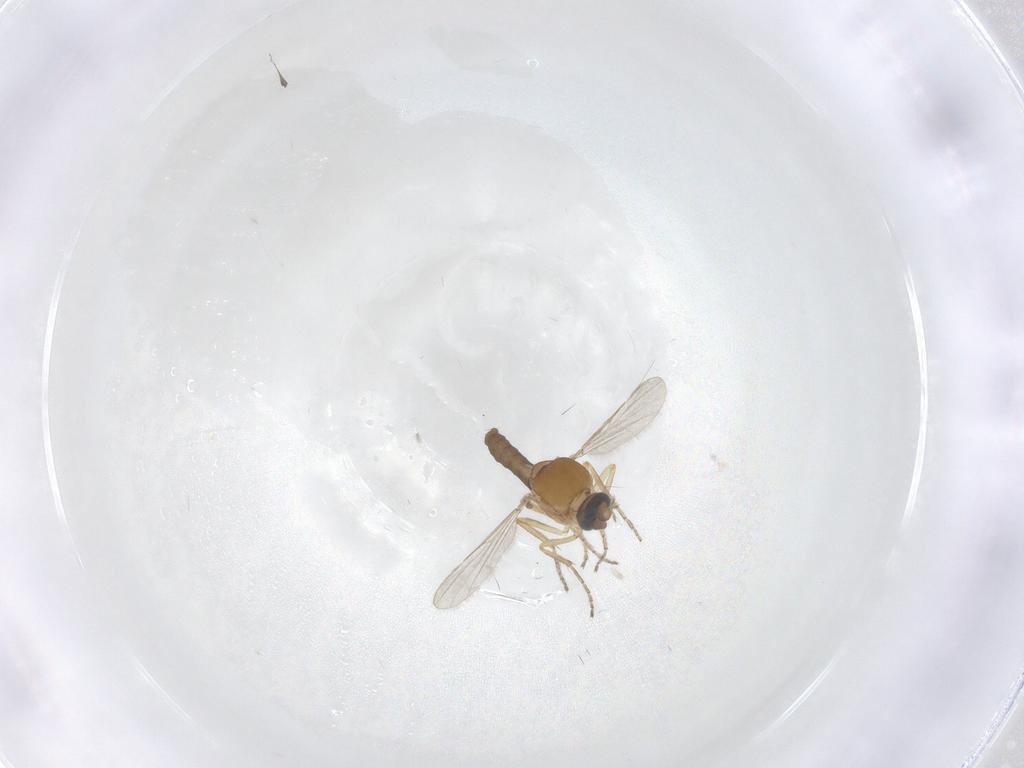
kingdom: Animalia
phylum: Arthropoda
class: Insecta
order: Diptera
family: Ceratopogonidae
